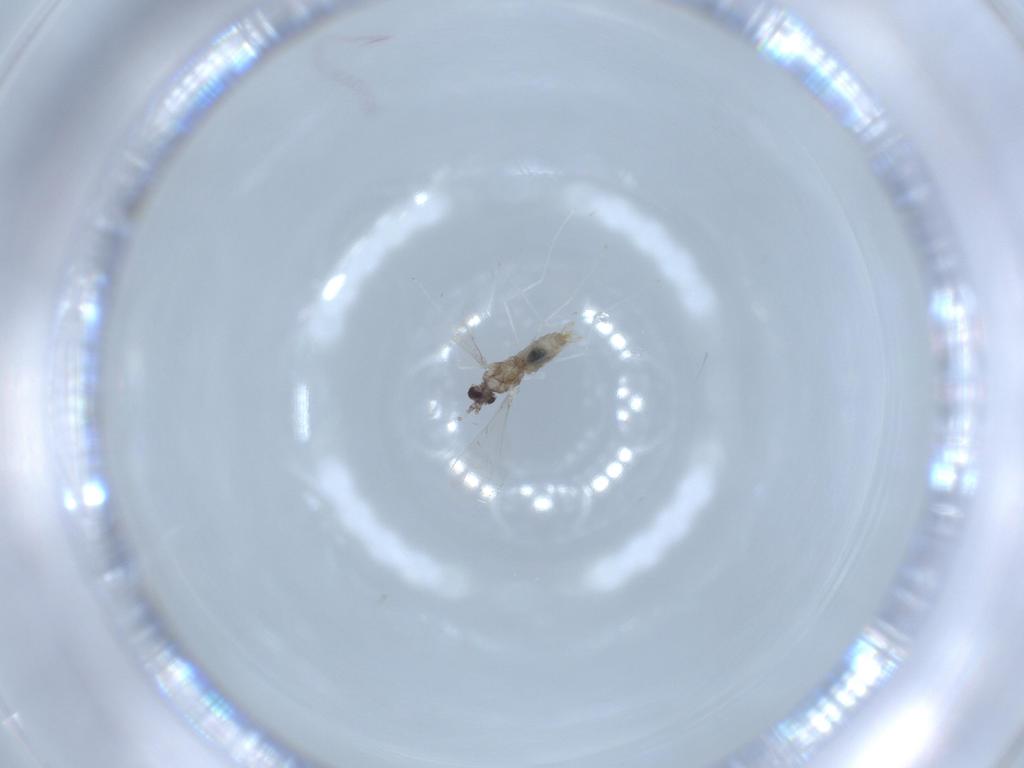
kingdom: Animalia
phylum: Arthropoda
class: Insecta
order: Diptera
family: Cecidomyiidae
